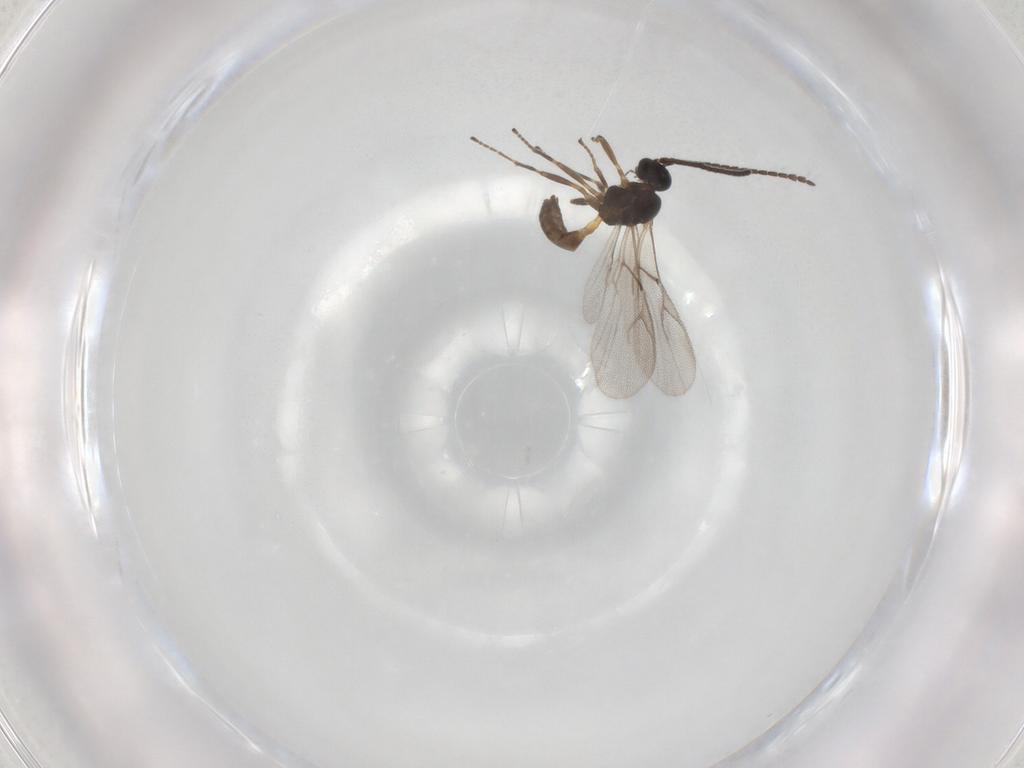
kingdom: Animalia
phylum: Arthropoda
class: Insecta
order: Hymenoptera
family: Braconidae
